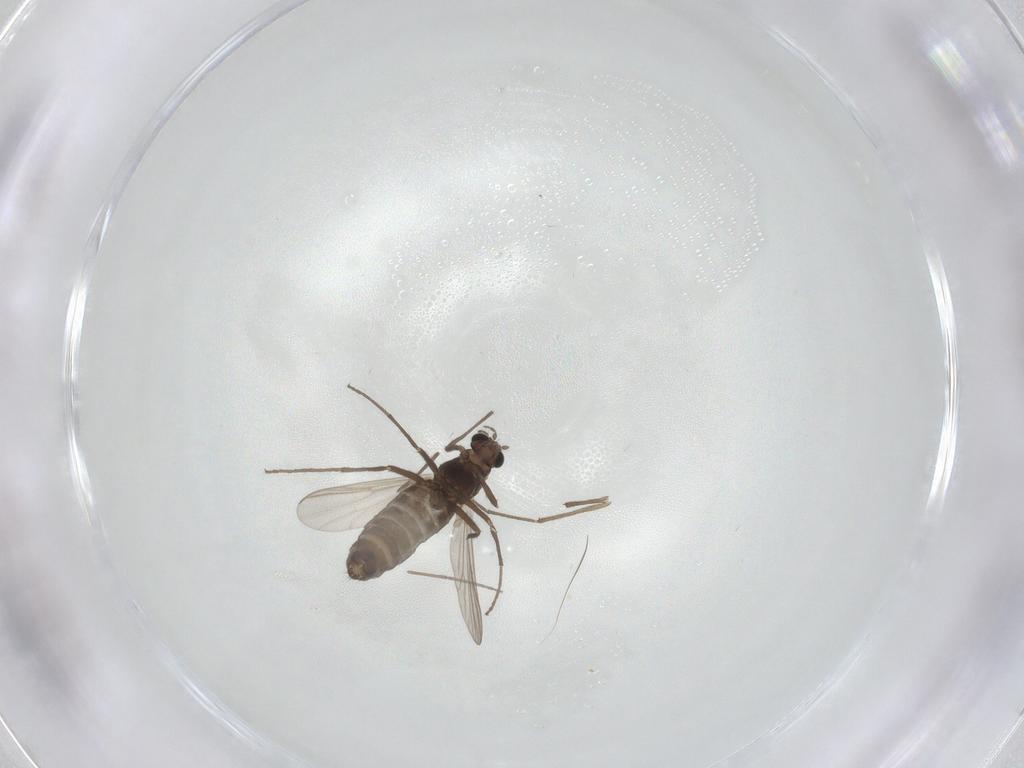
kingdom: Animalia
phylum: Arthropoda
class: Insecta
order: Diptera
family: Chironomidae
